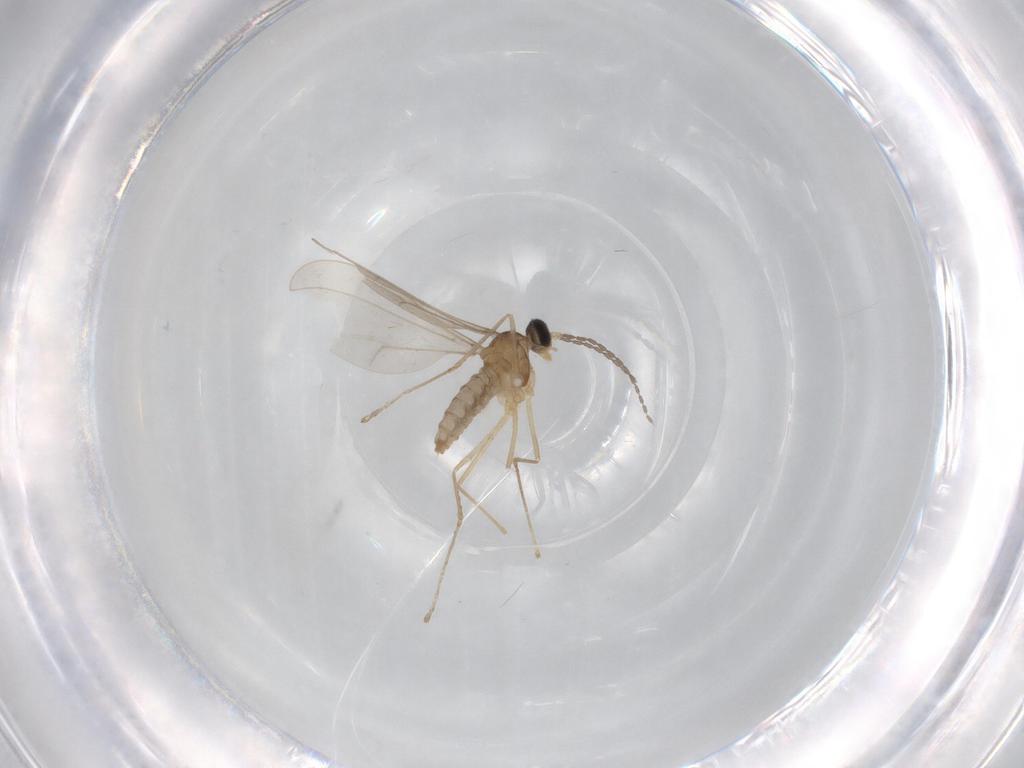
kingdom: Animalia
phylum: Arthropoda
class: Insecta
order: Diptera
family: Cecidomyiidae
